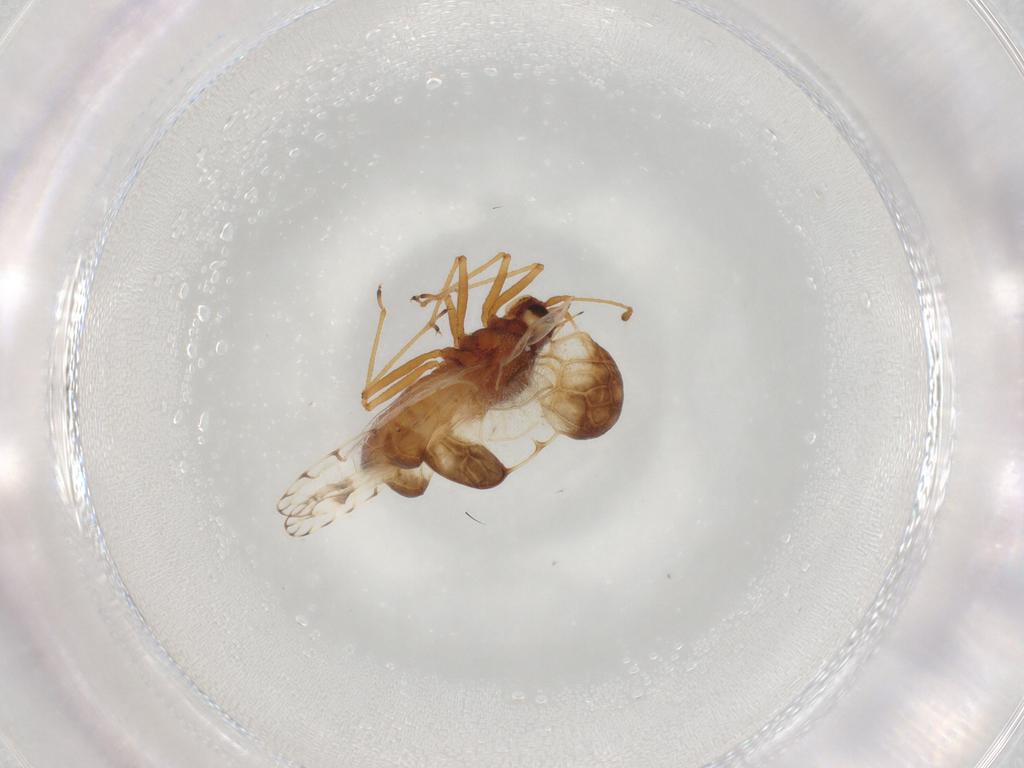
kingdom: Animalia
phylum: Arthropoda
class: Insecta
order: Hemiptera
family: Tingidae
